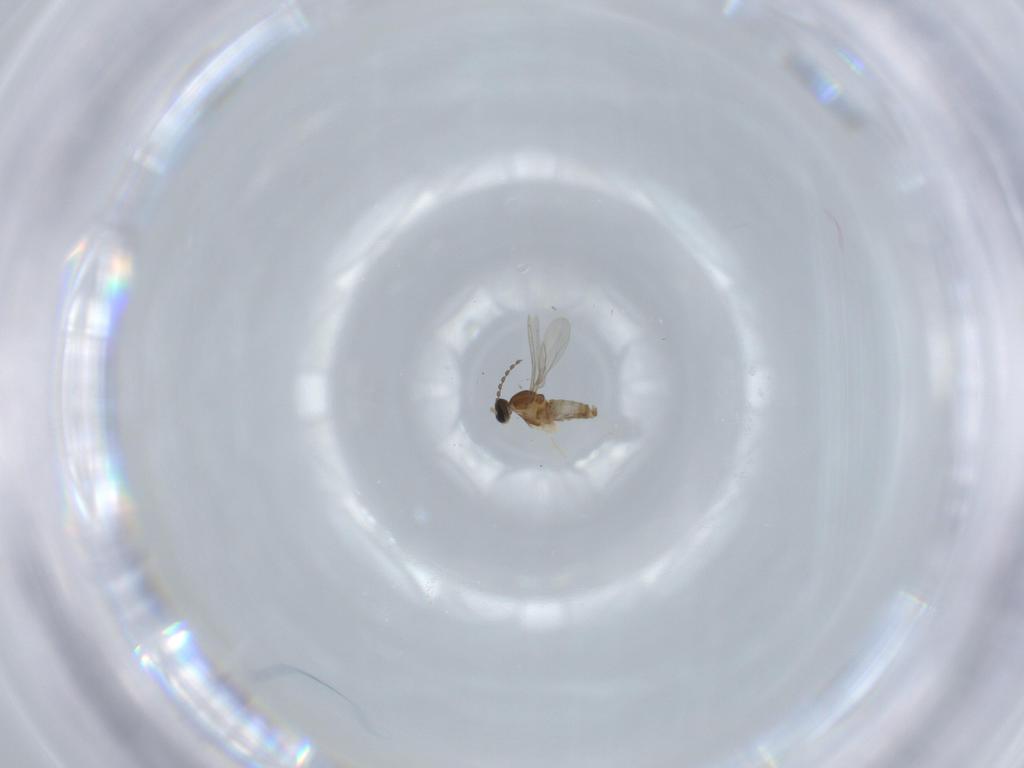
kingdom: Animalia
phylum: Arthropoda
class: Insecta
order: Diptera
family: Cecidomyiidae
